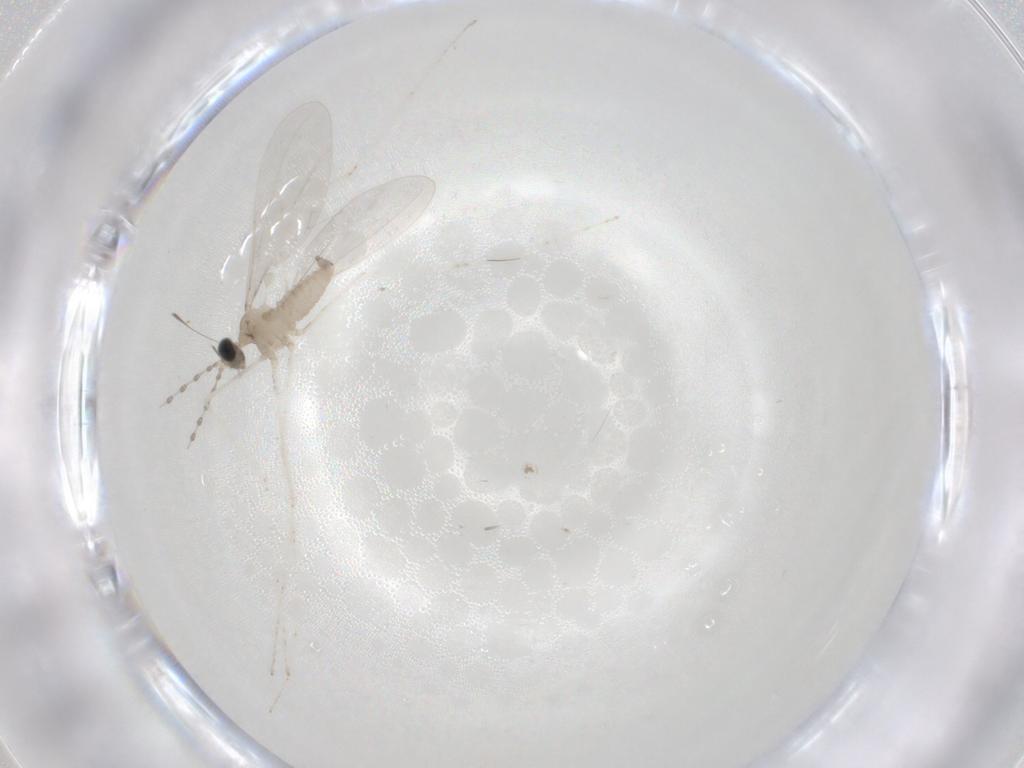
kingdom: Animalia
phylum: Arthropoda
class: Insecta
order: Diptera
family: Cecidomyiidae
